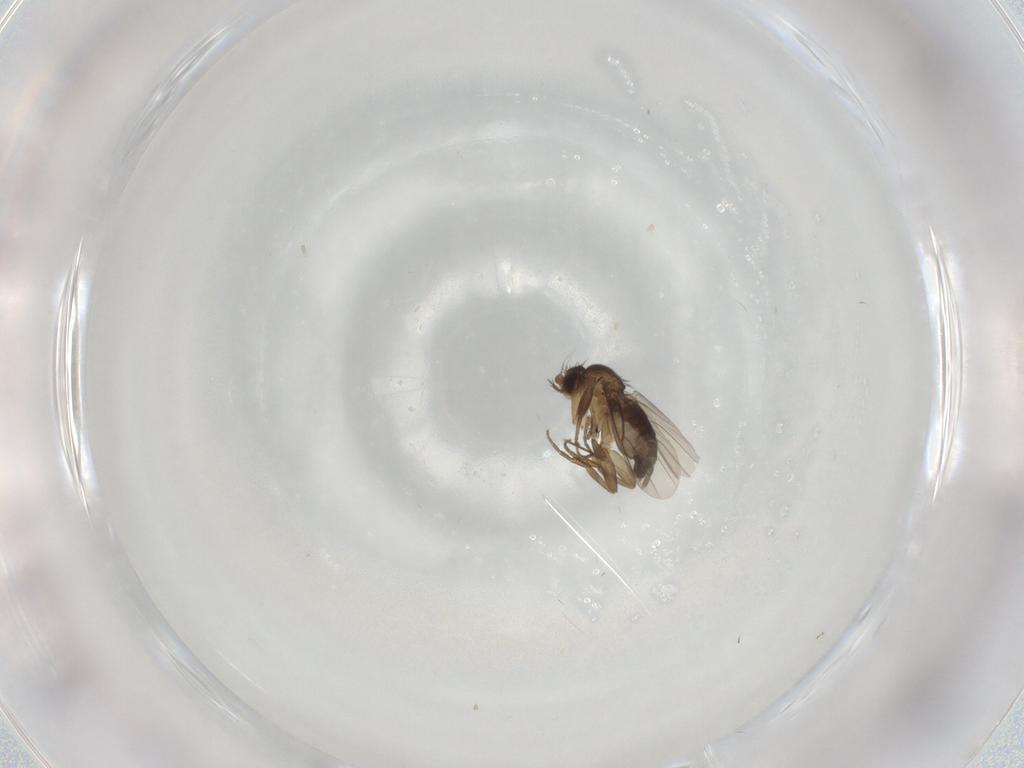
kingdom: Animalia
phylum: Arthropoda
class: Insecta
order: Diptera
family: Phoridae
